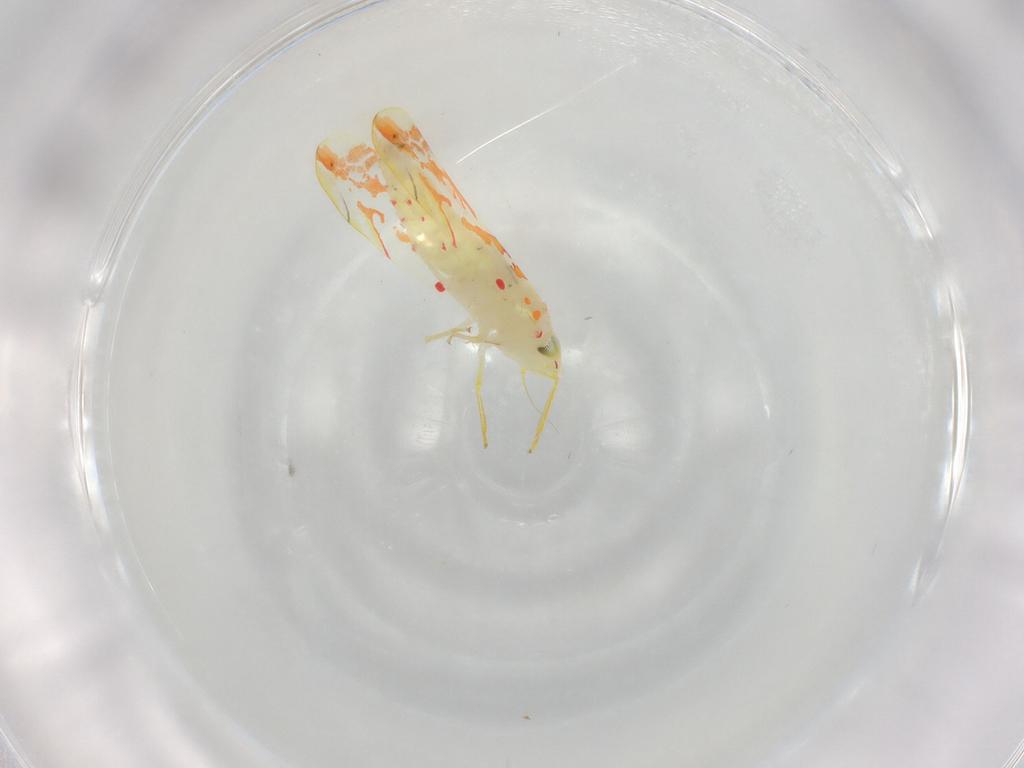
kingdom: Animalia
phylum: Arthropoda
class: Insecta
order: Hemiptera
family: Cicadellidae
